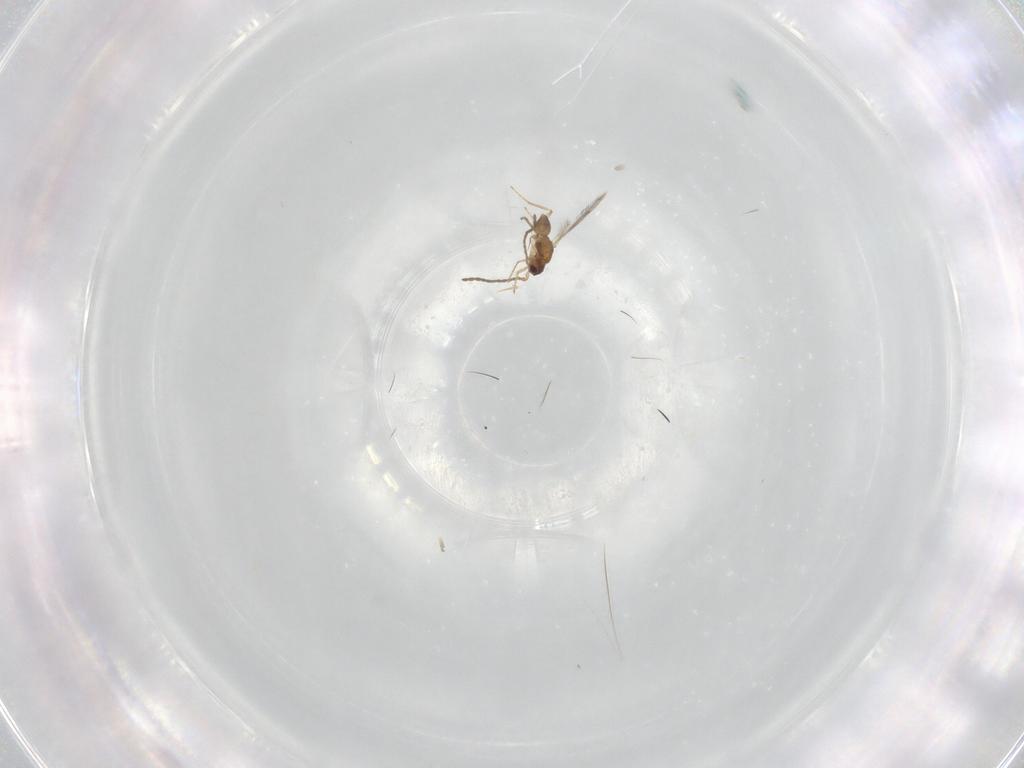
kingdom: Animalia
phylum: Arthropoda
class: Insecta
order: Hymenoptera
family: Mymaridae
